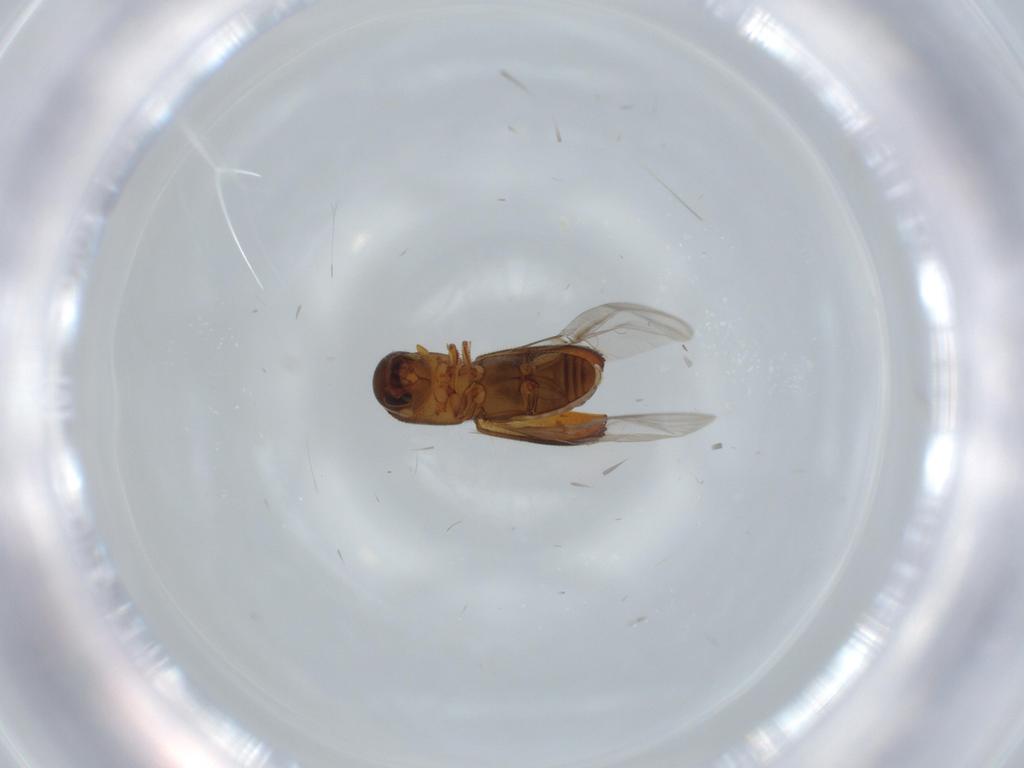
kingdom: Animalia
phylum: Arthropoda
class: Insecta
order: Coleoptera
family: Curculionidae
